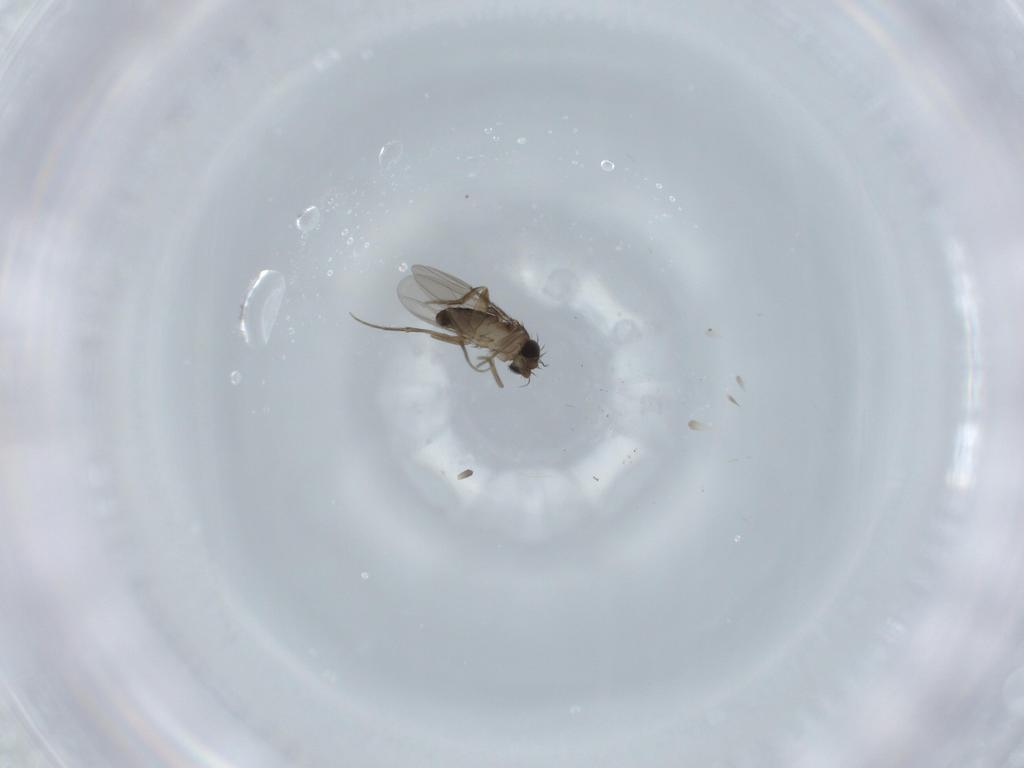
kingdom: Animalia
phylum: Arthropoda
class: Insecta
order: Diptera
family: Phoridae
